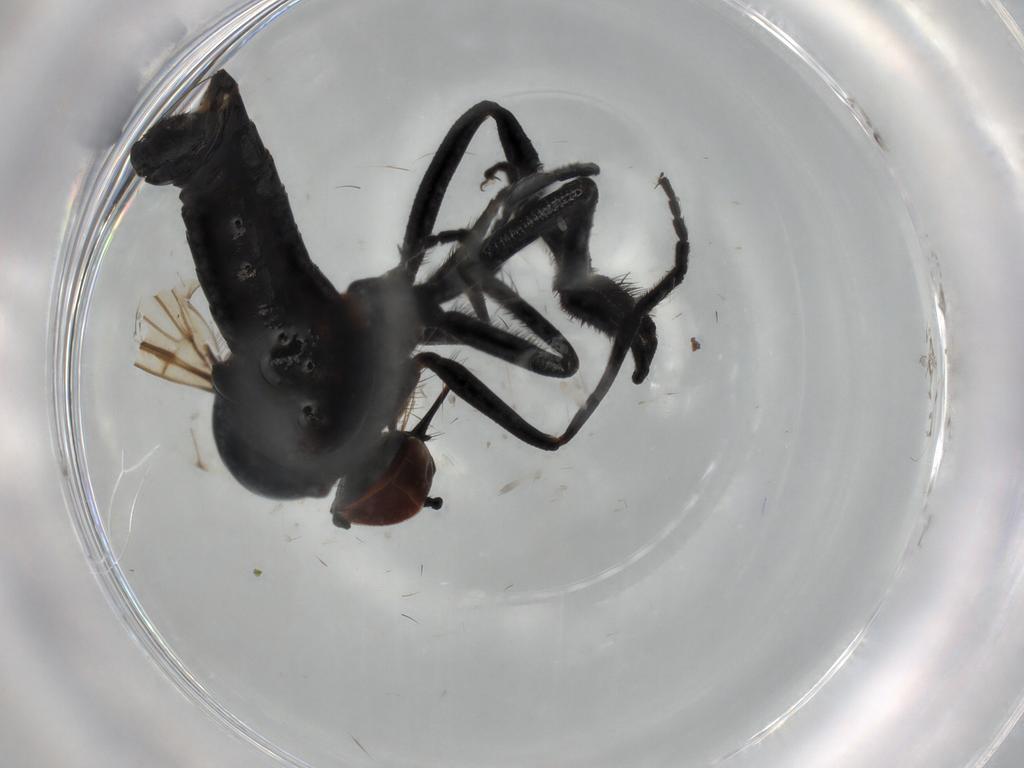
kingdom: Animalia
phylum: Arthropoda
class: Insecta
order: Diptera
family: Empididae
